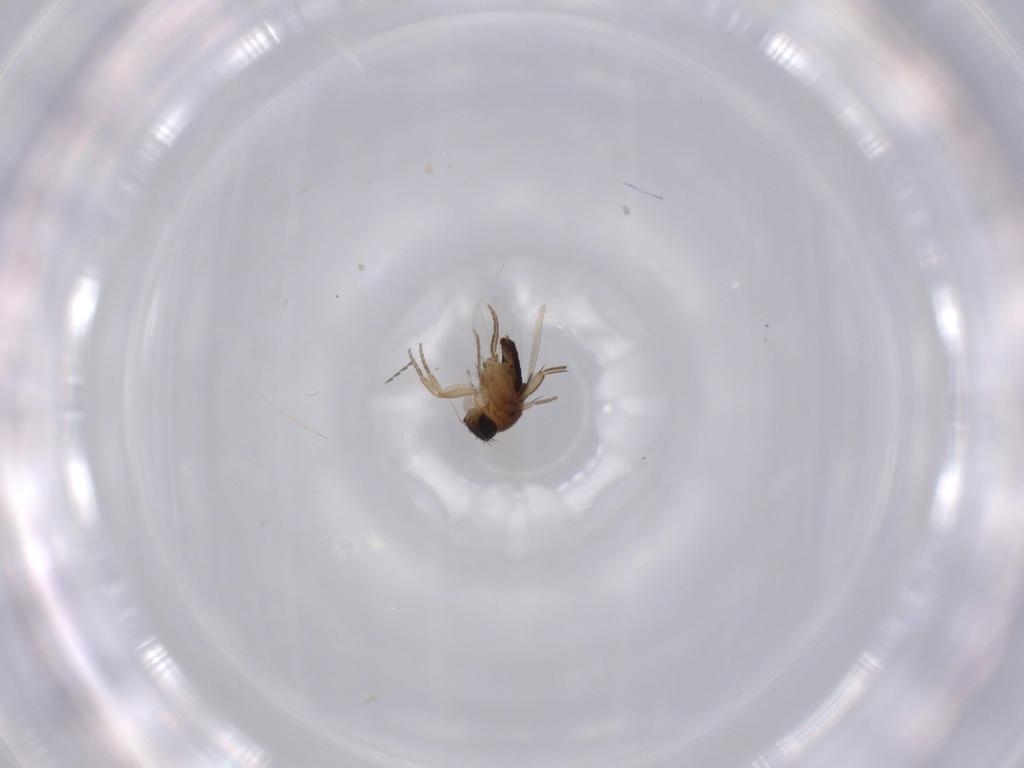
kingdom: Animalia
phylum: Arthropoda
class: Insecta
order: Diptera
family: Phoridae
